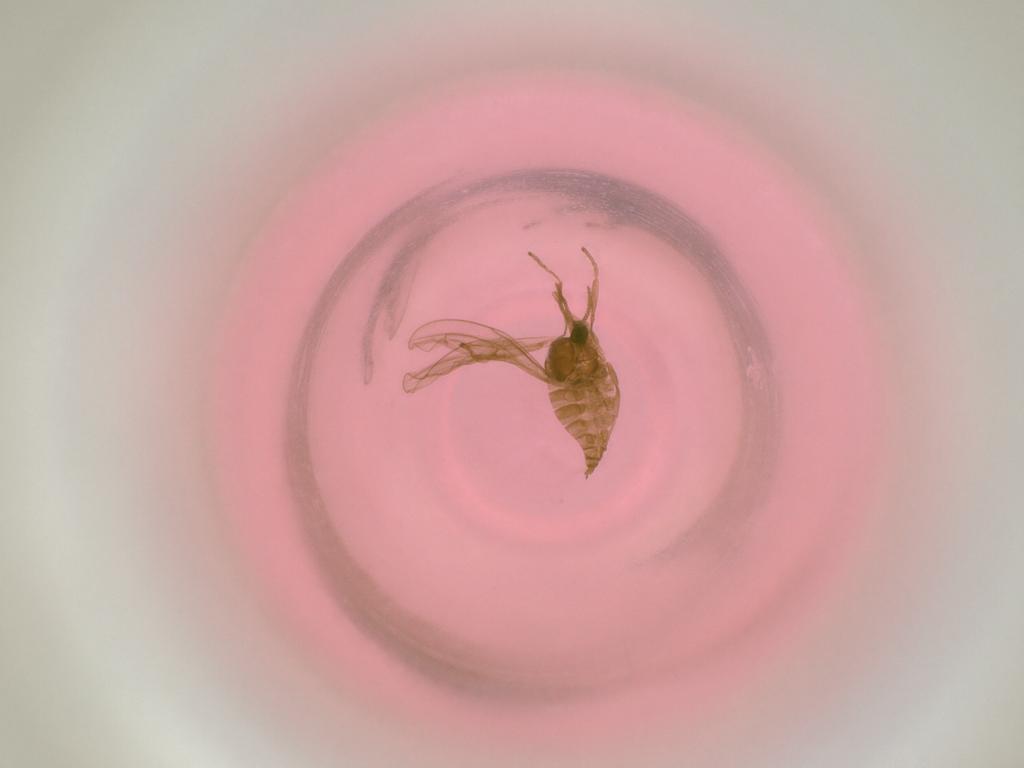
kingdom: Animalia
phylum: Arthropoda
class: Insecta
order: Diptera
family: Cecidomyiidae
